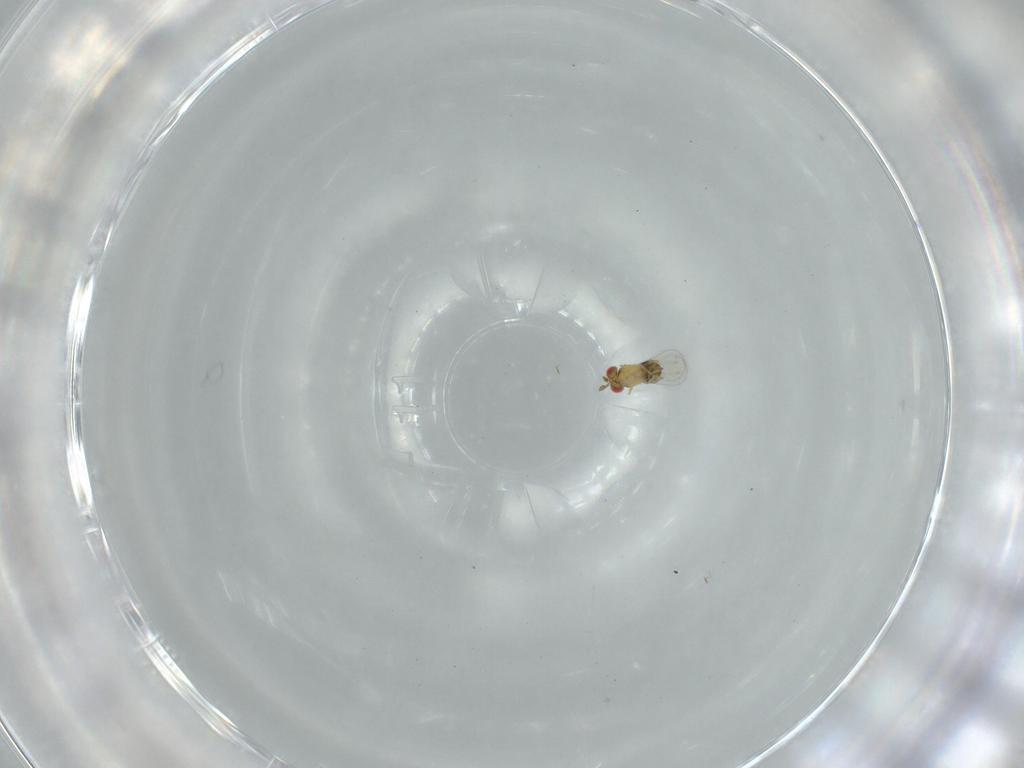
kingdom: Animalia
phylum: Arthropoda
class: Insecta
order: Hymenoptera
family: Trichogrammatidae
